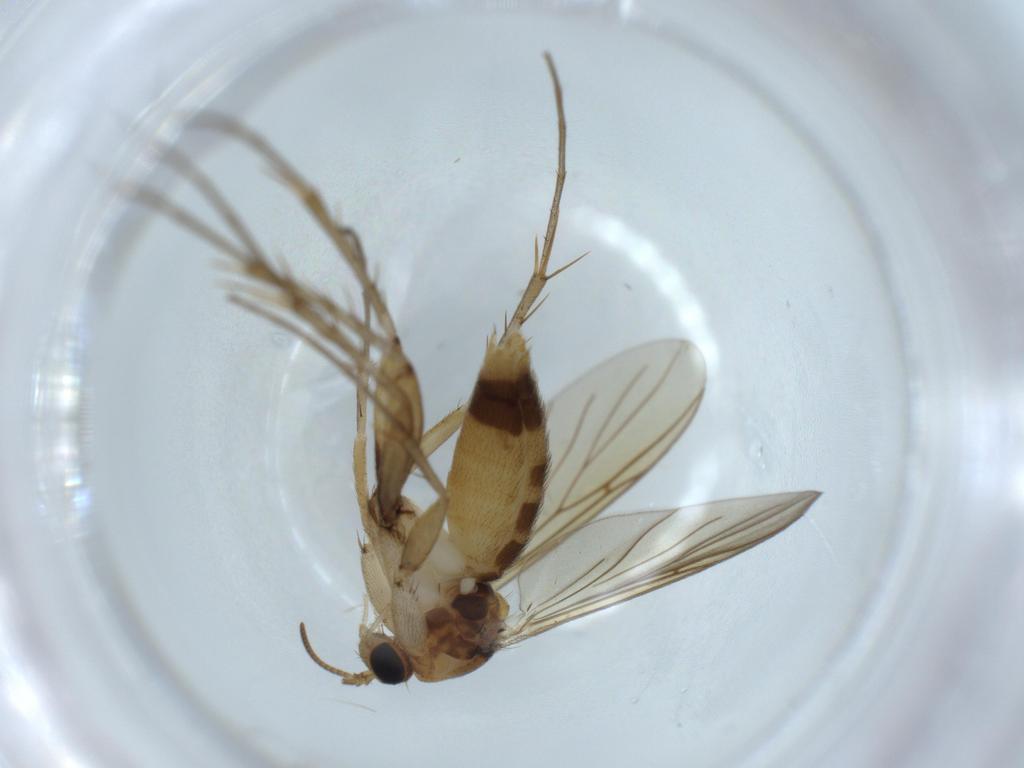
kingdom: Animalia
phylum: Arthropoda
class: Insecta
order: Diptera
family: Mycetophilidae
